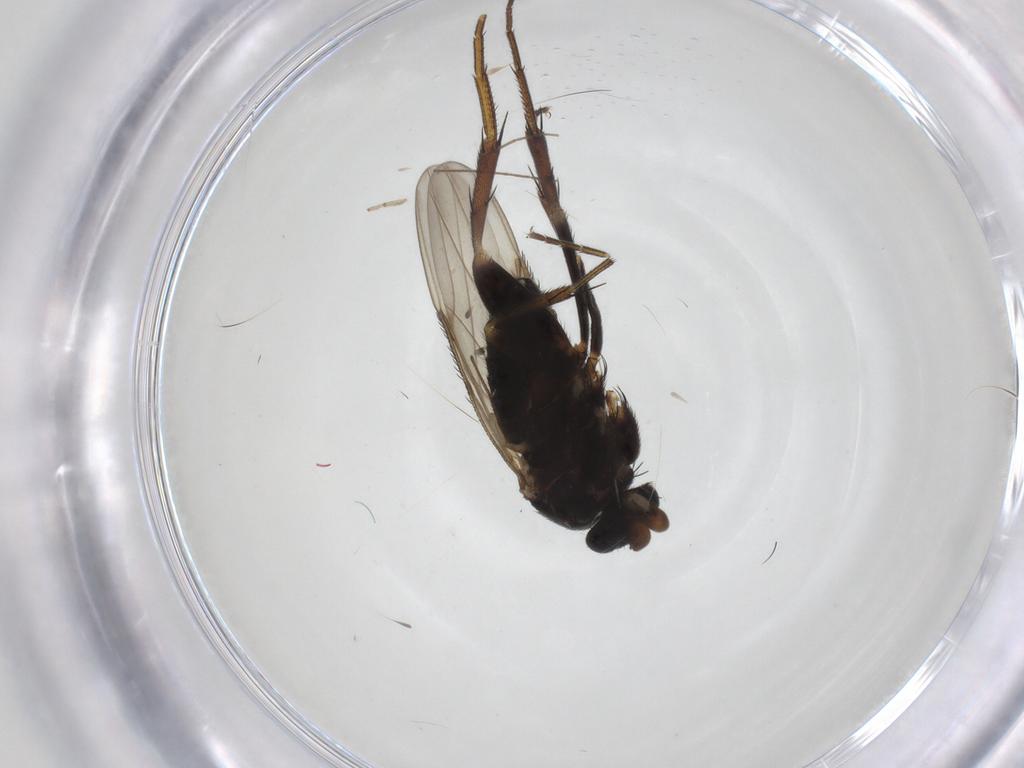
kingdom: Animalia
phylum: Arthropoda
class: Insecta
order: Diptera
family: Phoridae
